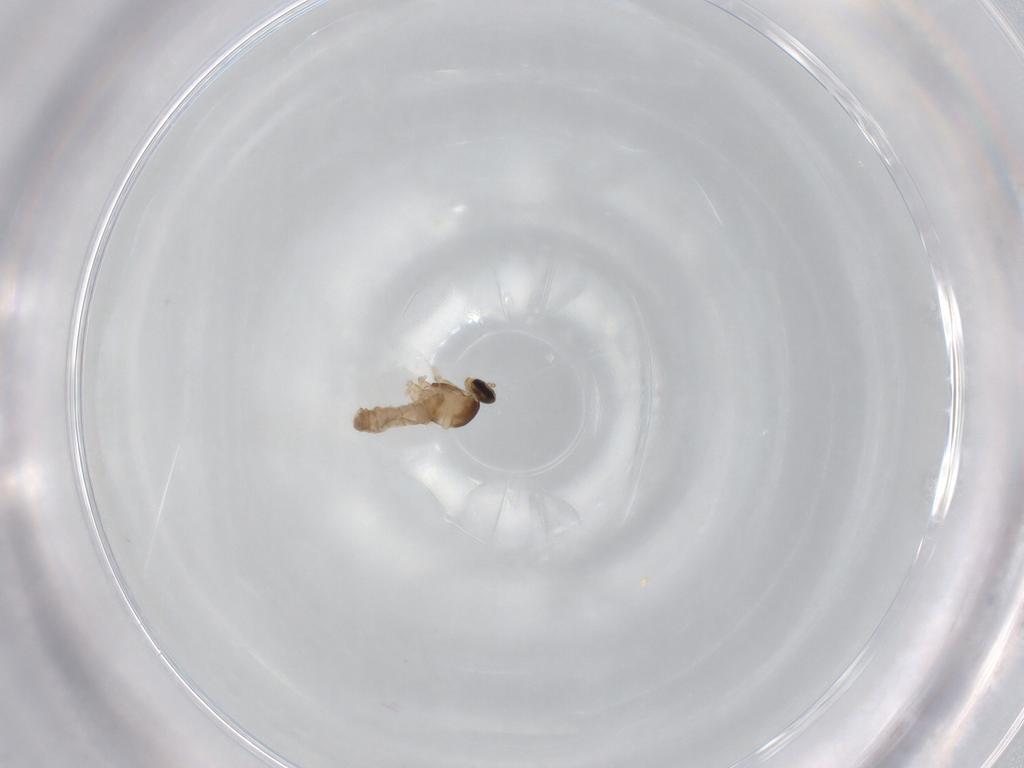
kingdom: Animalia
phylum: Arthropoda
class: Insecta
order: Diptera
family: Cecidomyiidae
